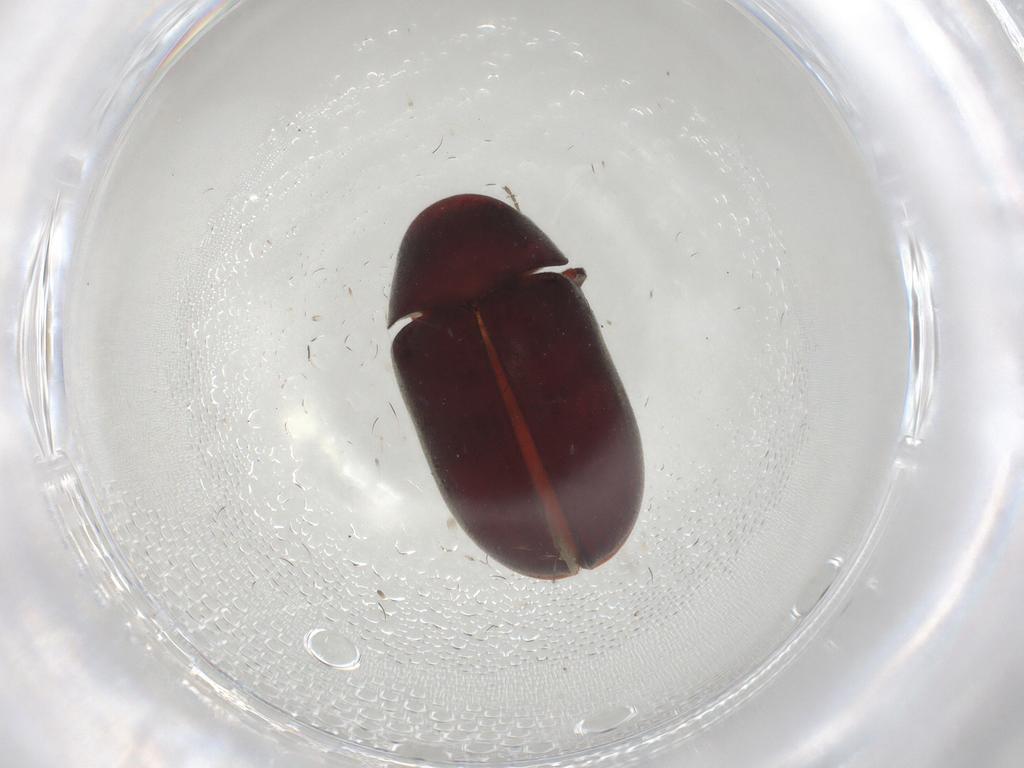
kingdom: Animalia
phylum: Arthropoda
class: Insecta
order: Coleoptera
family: Ptinidae
